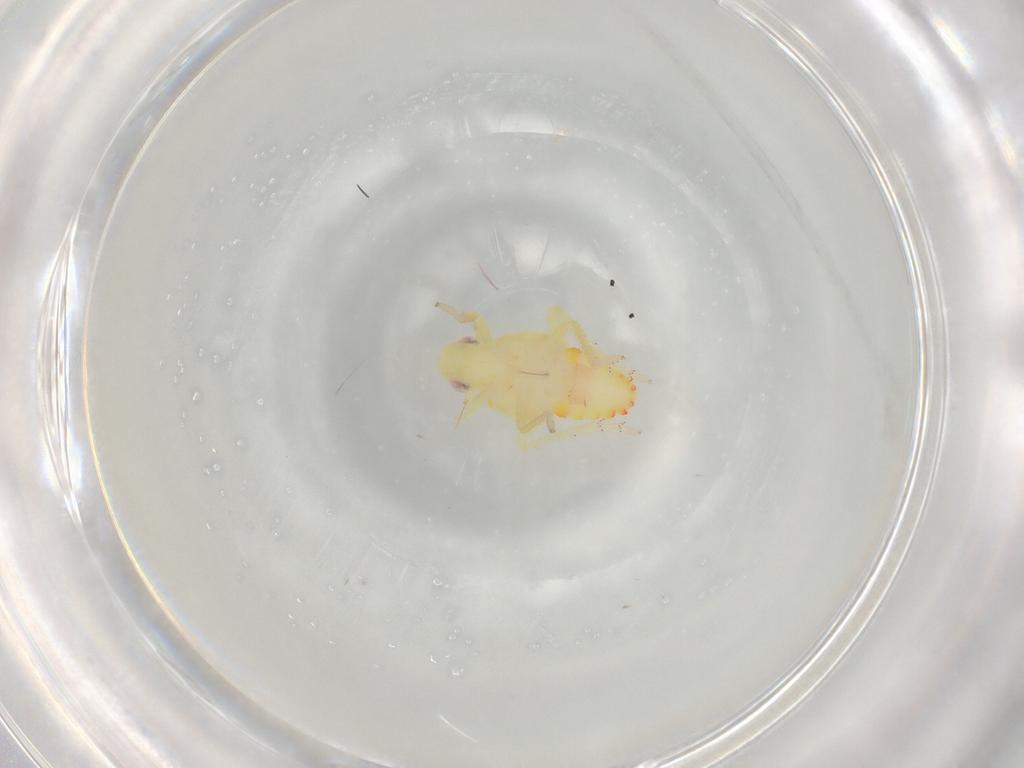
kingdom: Animalia
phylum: Arthropoda
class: Insecta
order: Hemiptera
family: Tropiduchidae
